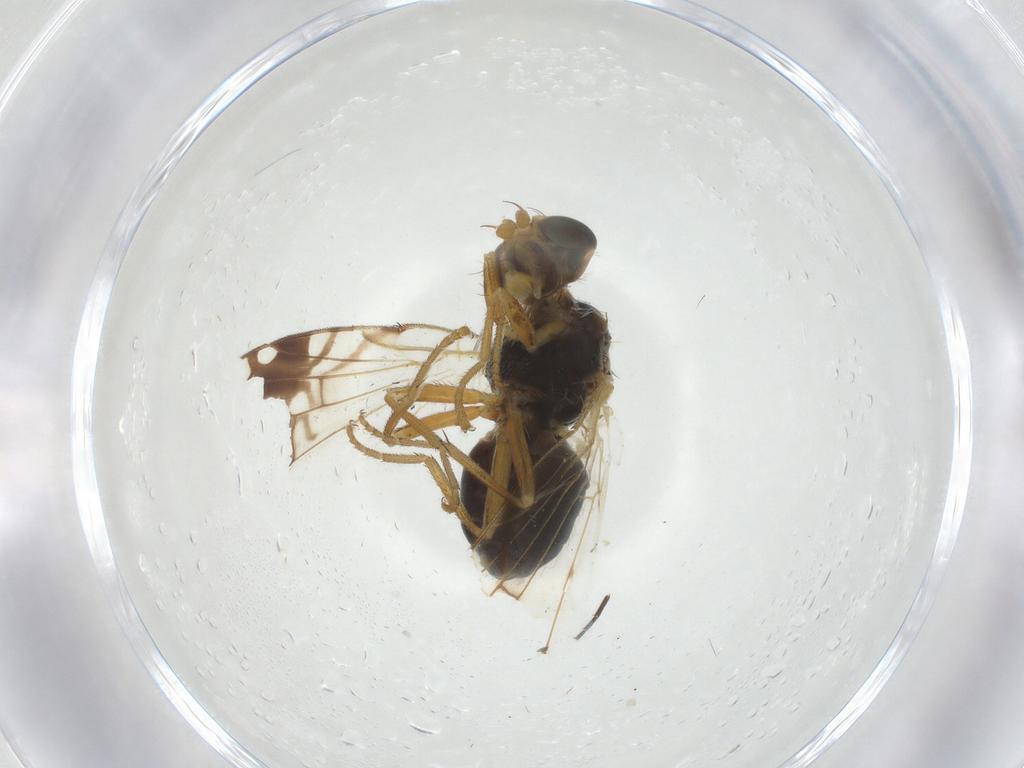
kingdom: Animalia
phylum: Arthropoda
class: Insecta
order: Diptera
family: Tephritidae
